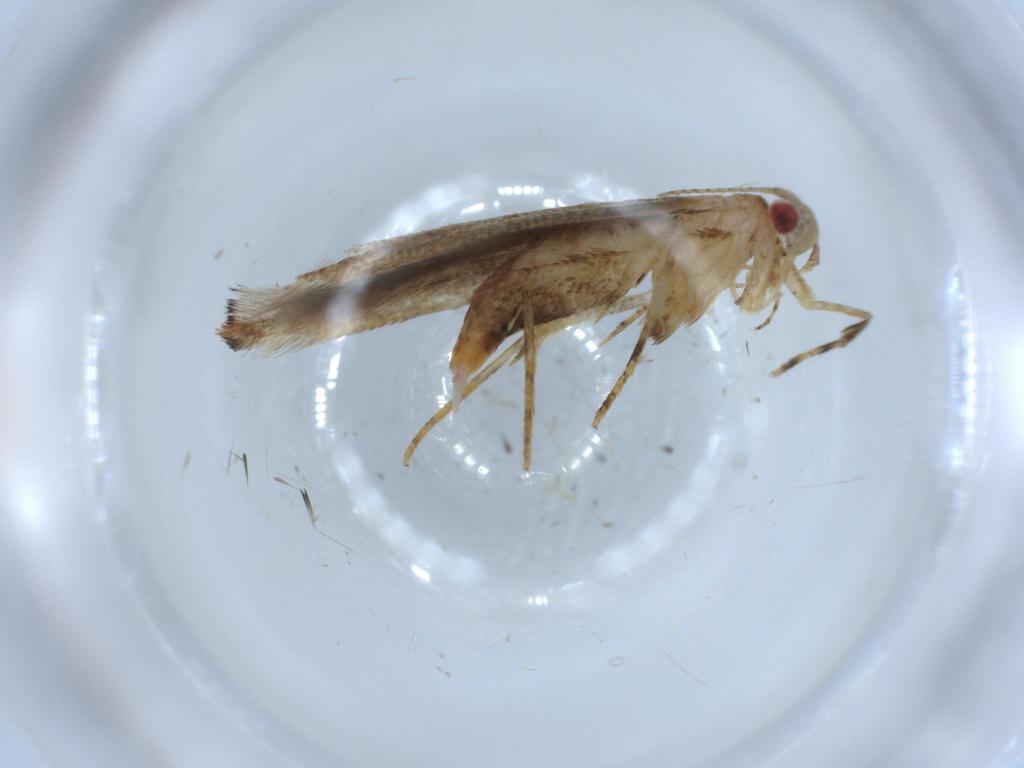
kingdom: Animalia
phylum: Arthropoda
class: Insecta
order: Lepidoptera
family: Cosmopterigidae
